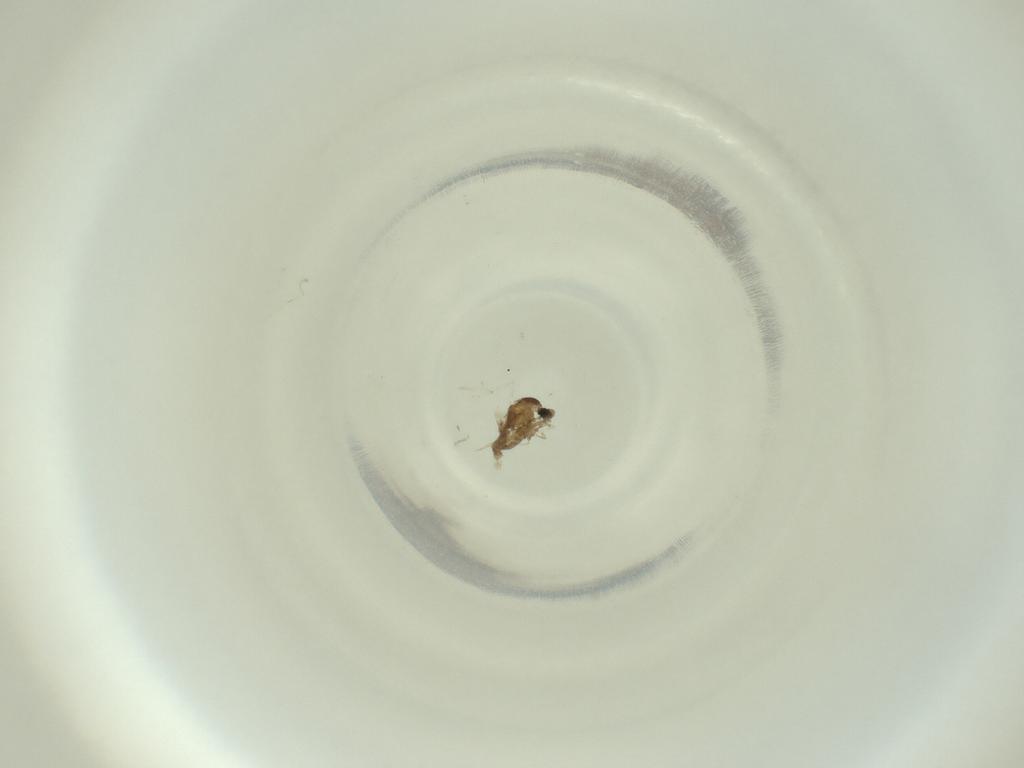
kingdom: Animalia
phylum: Arthropoda
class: Insecta
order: Diptera
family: Cecidomyiidae
